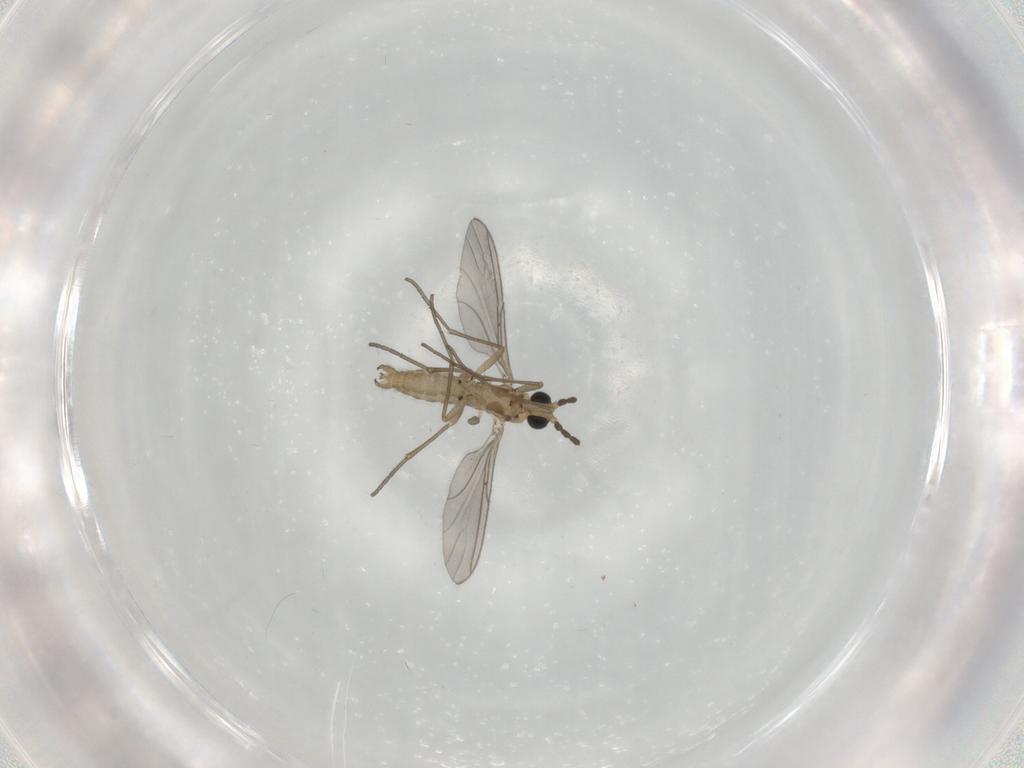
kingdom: Animalia
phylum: Arthropoda
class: Insecta
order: Diptera
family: Sciaridae
